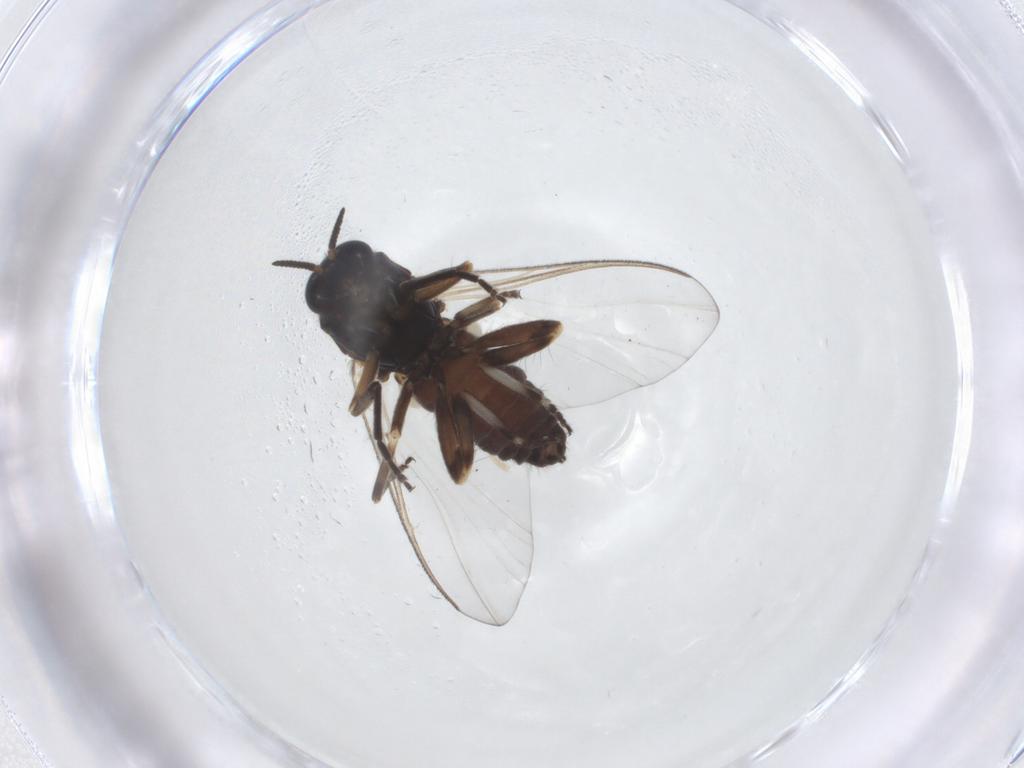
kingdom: Animalia
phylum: Arthropoda
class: Insecta
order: Diptera
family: Simuliidae
